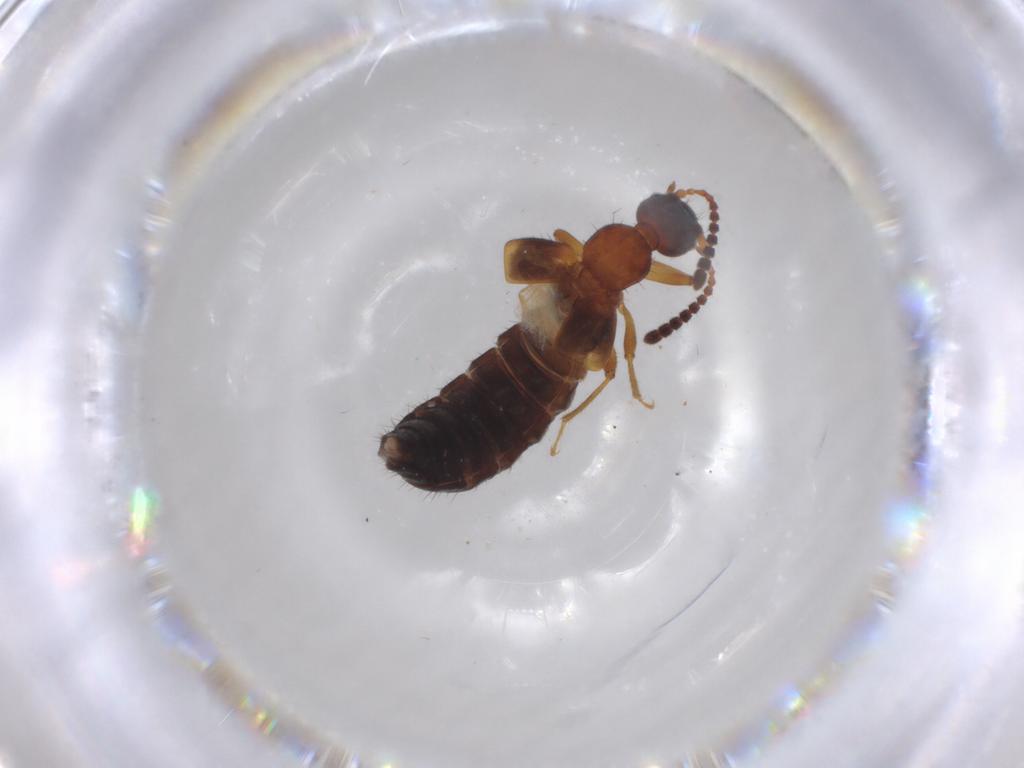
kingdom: Animalia
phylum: Arthropoda
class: Insecta
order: Coleoptera
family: Staphylinidae
